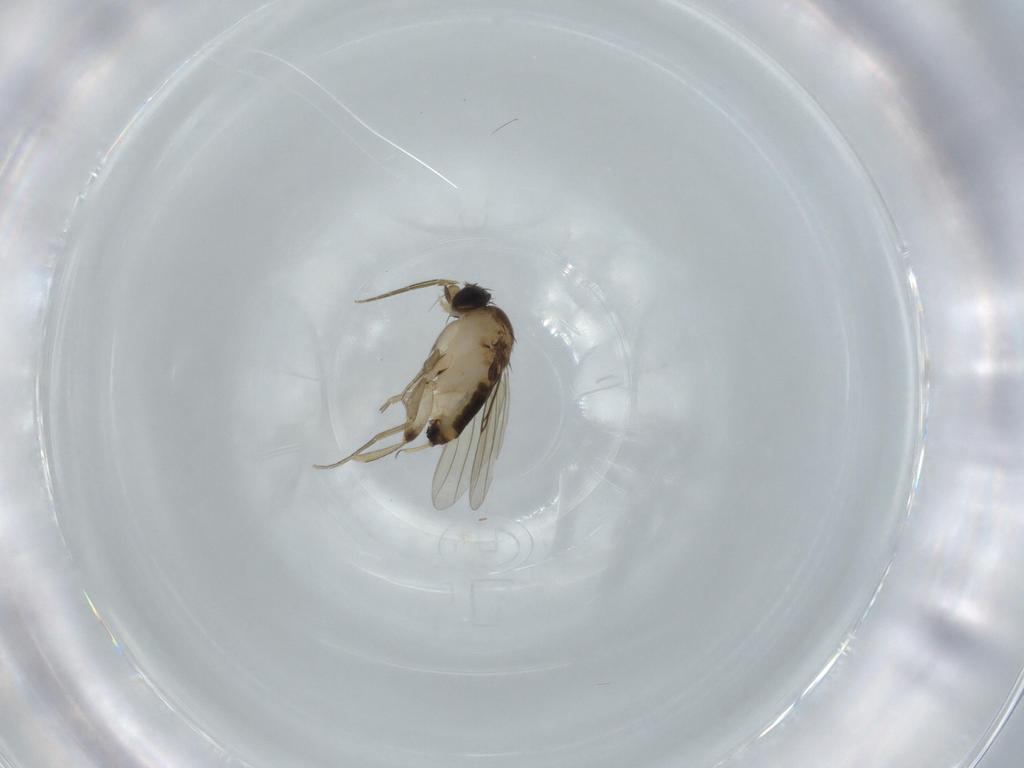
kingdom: Animalia
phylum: Arthropoda
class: Insecta
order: Diptera
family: Phoridae
